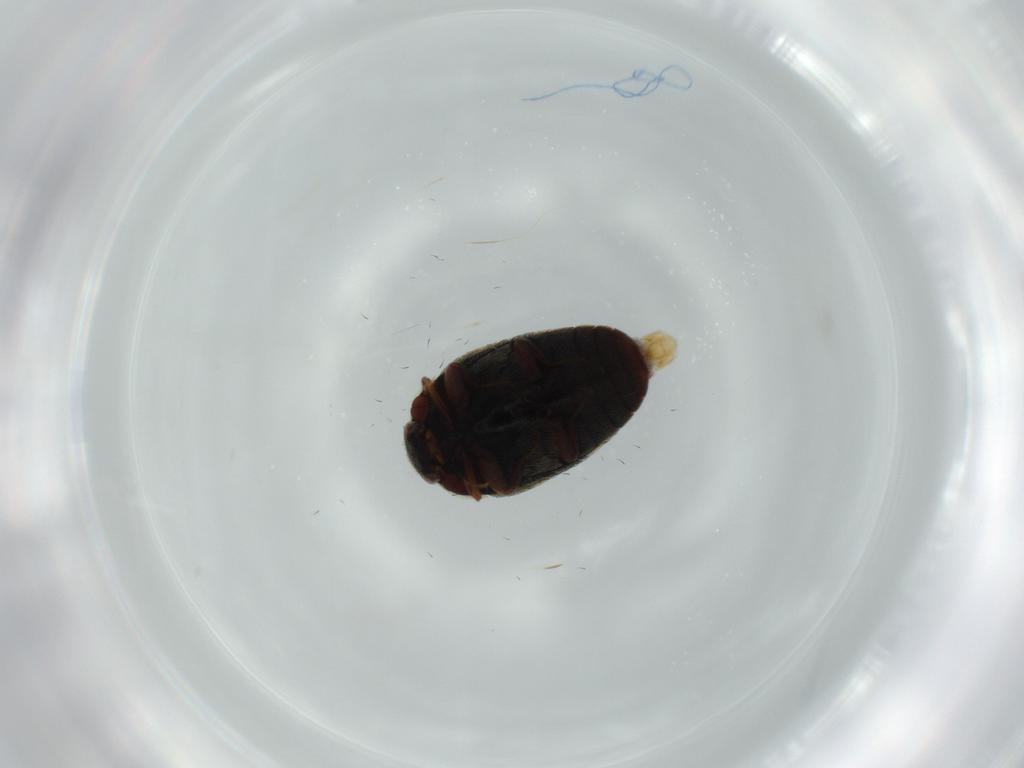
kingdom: Animalia
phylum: Arthropoda
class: Insecta
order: Coleoptera
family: Dermestidae
